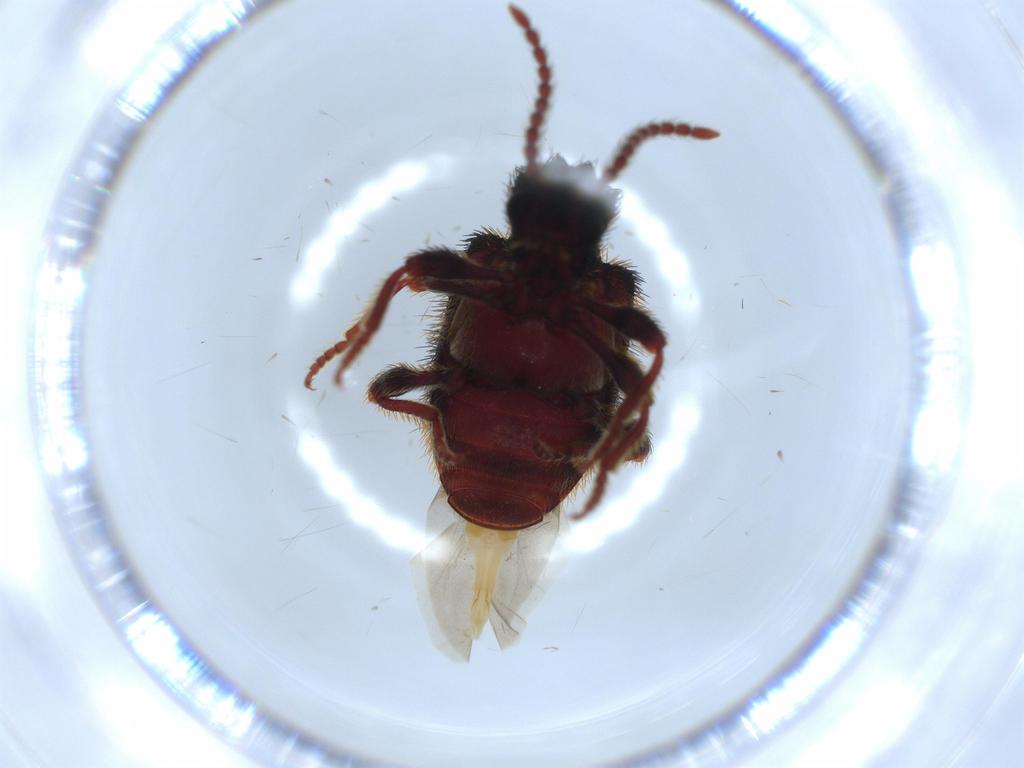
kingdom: Animalia
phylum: Arthropoda
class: Insecta
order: Coleoptera
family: Ptinidae
